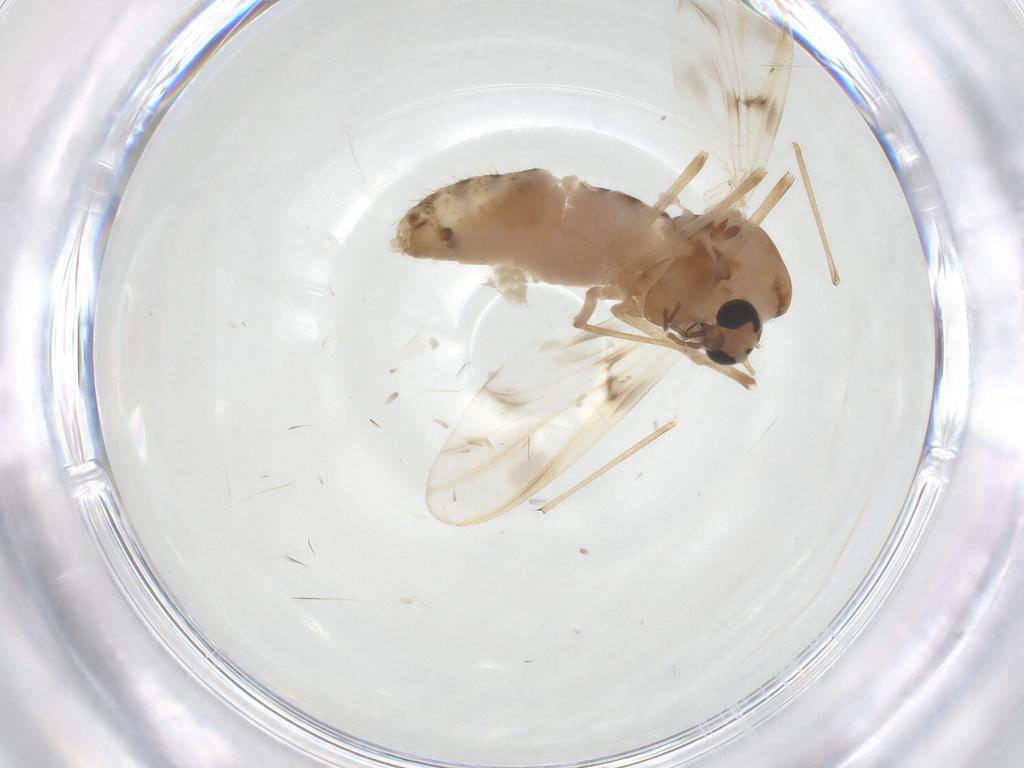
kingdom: Animalia
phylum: Arthropoda
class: Insecta
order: Diptera
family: Chironomidae
